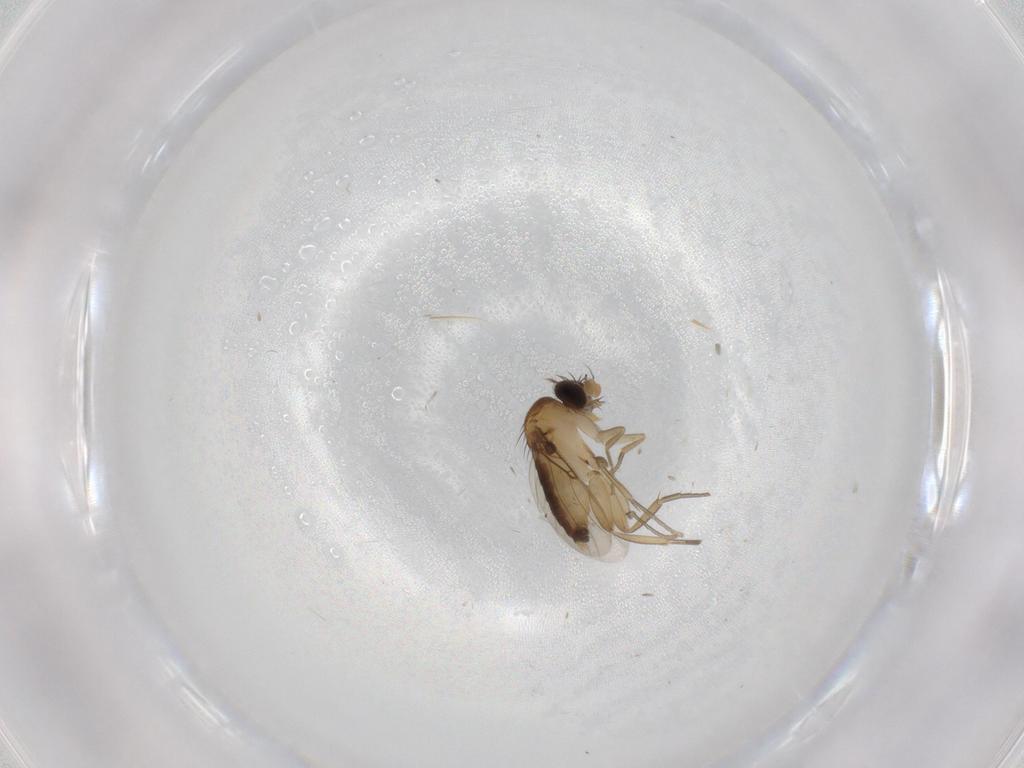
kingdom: Animalia
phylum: Arthropoda
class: Insecta
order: Diptera
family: Phoridae
